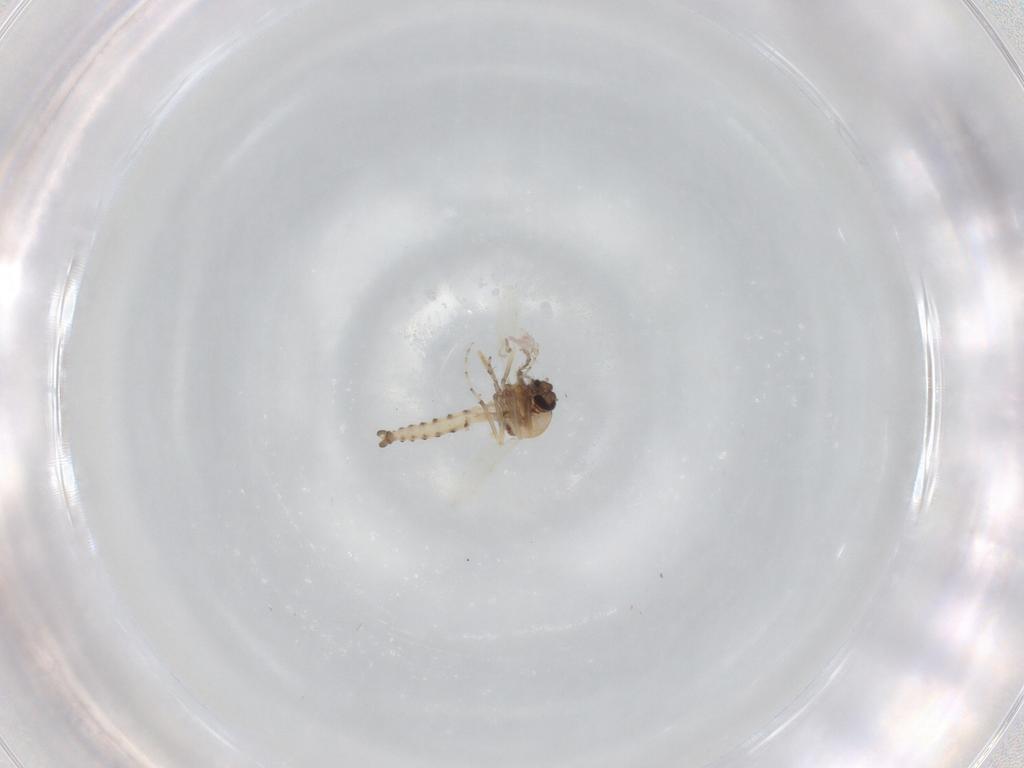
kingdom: Animalia
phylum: Arthropoda
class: Insecta
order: Diptera
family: Cecidomyiidae
